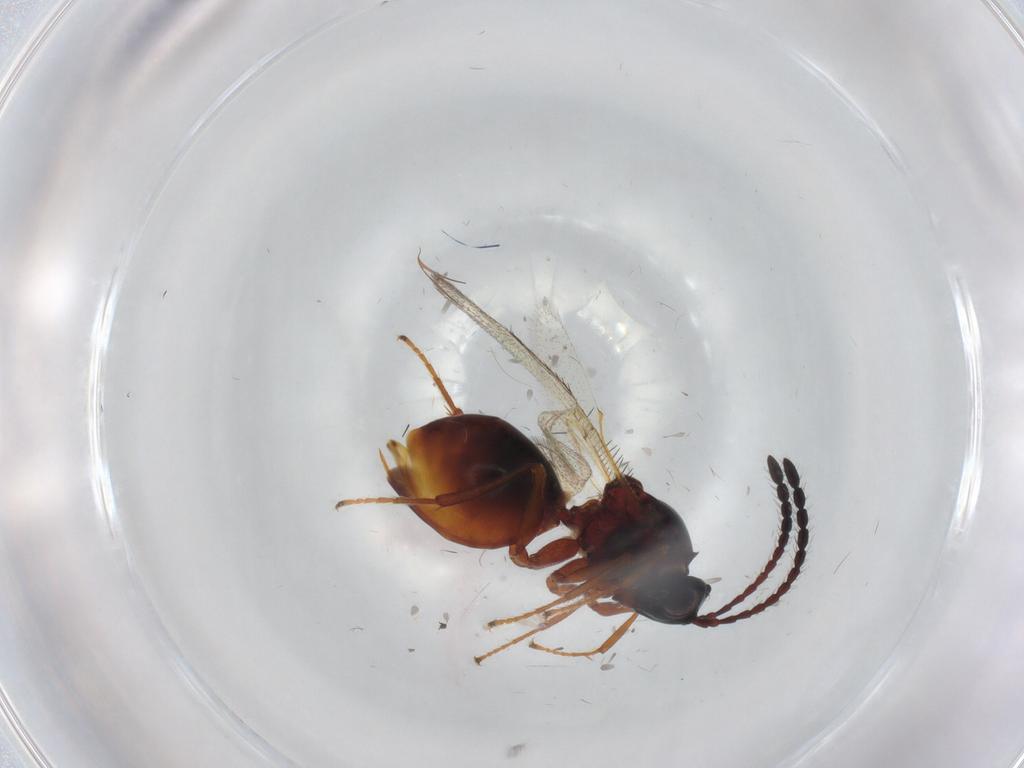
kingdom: Animalia
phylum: Arthropoda
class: Insecta
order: Hymenoptera
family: Figitidae
